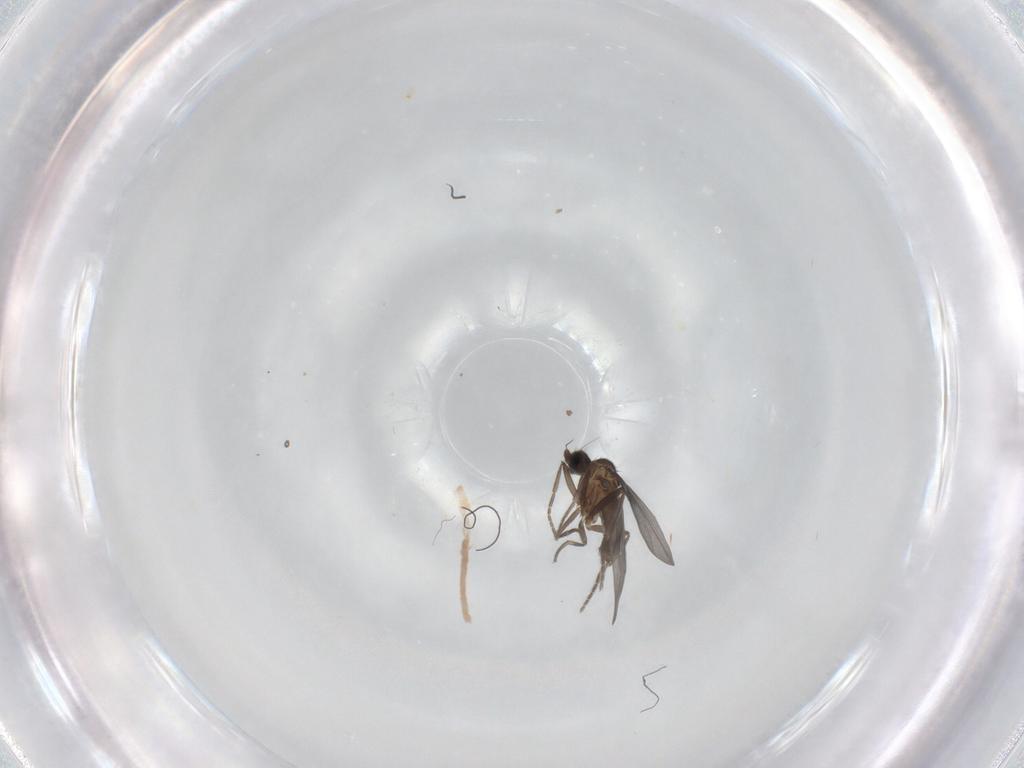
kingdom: Animalia
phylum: Arthropoda
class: Insecta
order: Diptera
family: Phoridae
